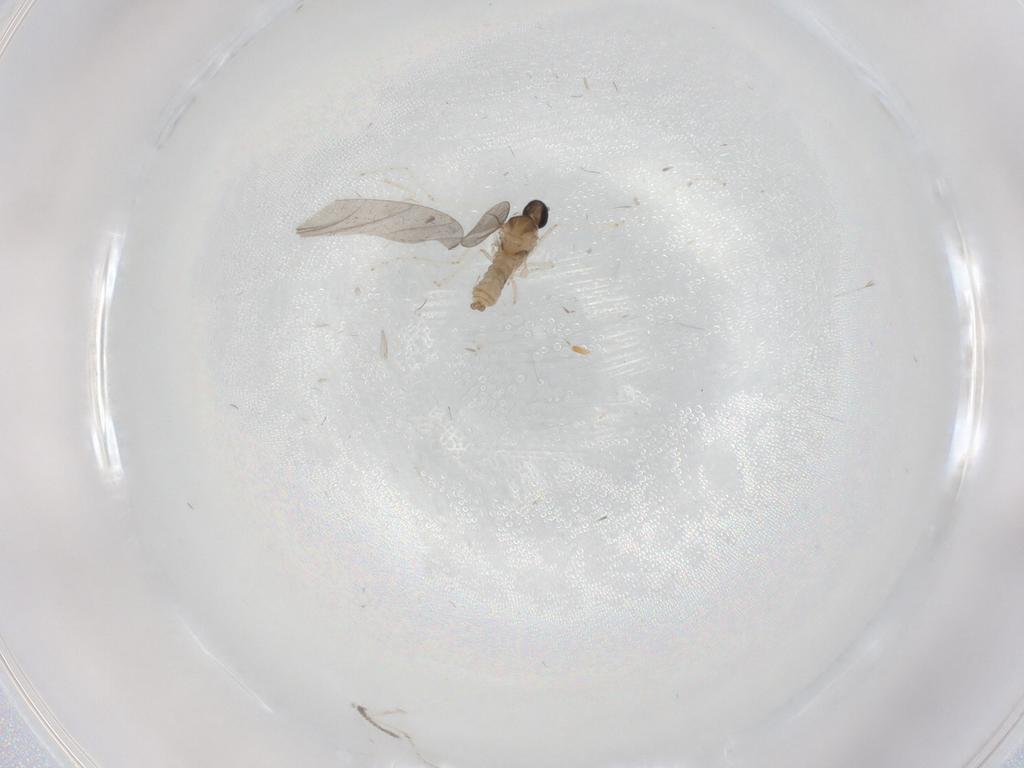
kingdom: Animalia
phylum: Arthropoda
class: Insecta
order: Diptera
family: Cecidomyiidae
